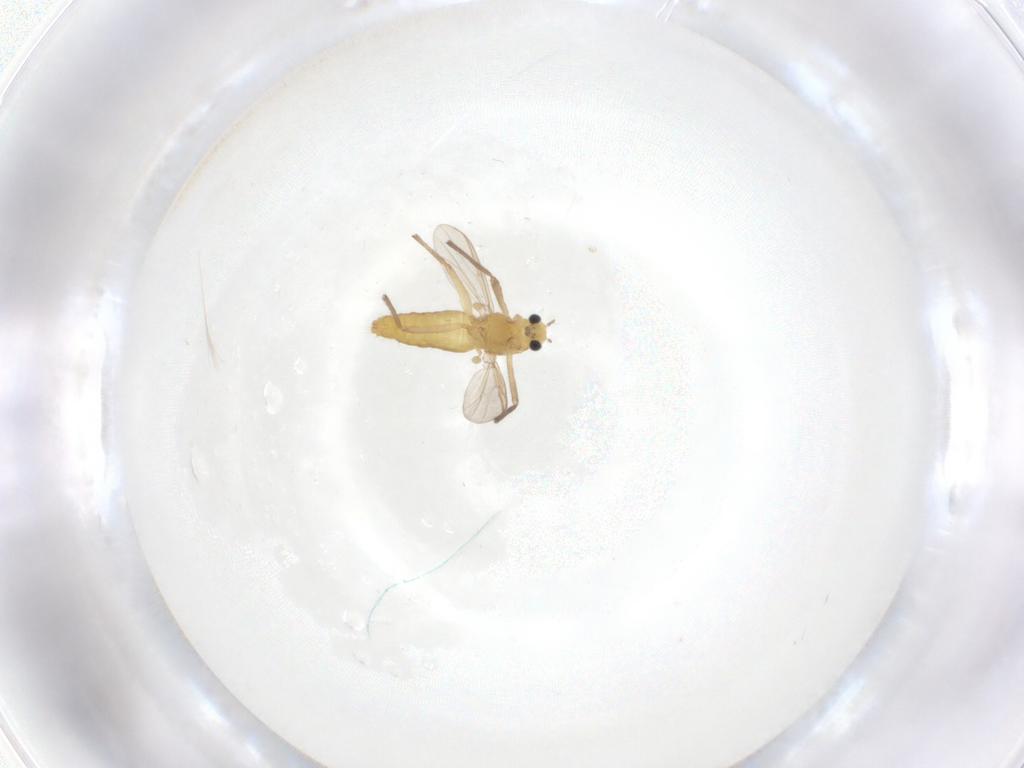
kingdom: Animalia
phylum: Arthropoda
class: Insecta
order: Diptera
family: Chironomidae
